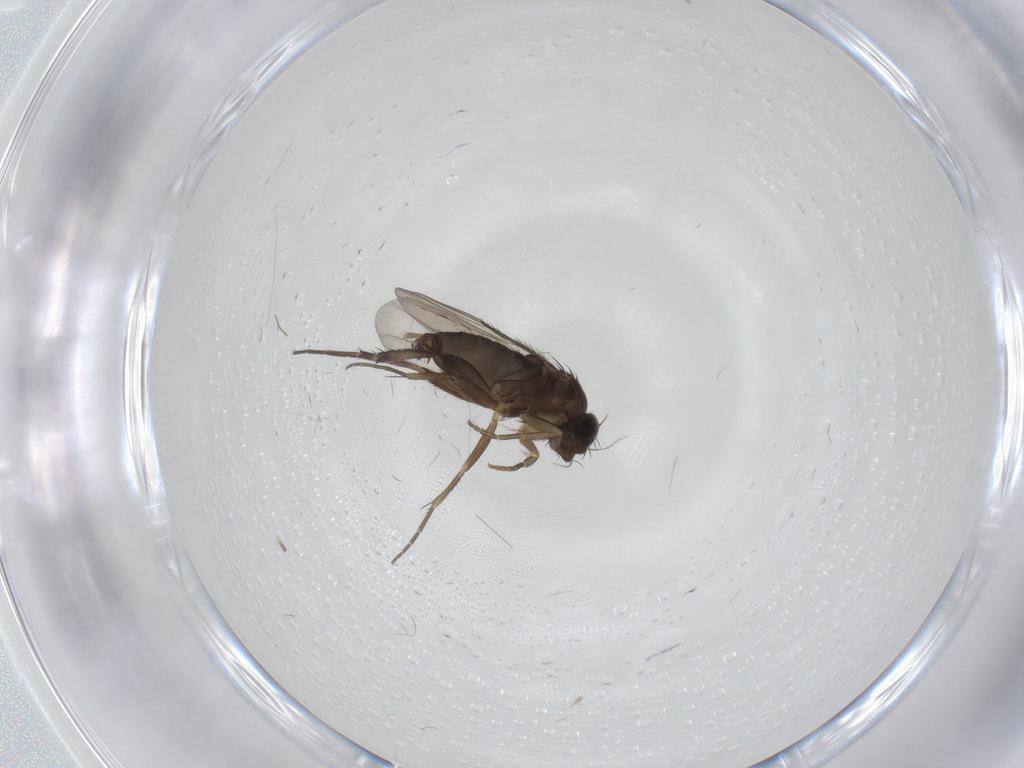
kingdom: Animalia
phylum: Arthropoda
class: Insecta
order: Diptera
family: Phoridae
